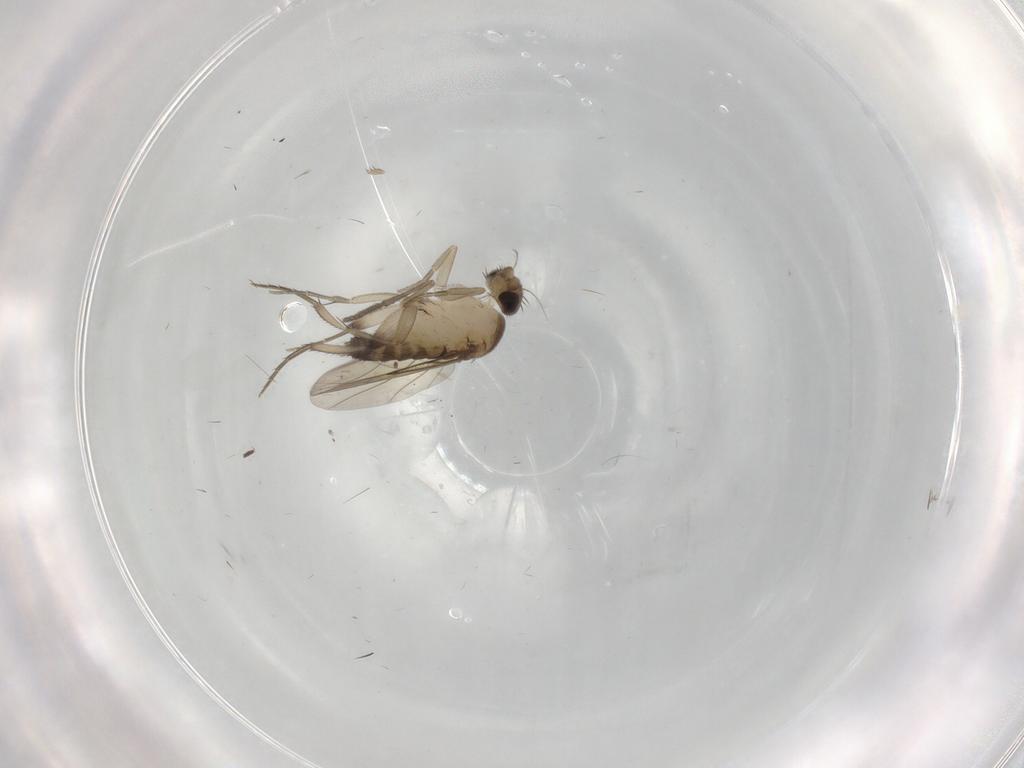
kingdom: Animalia
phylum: Arthropoda
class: Insecta
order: Diptera
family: Phoridae
